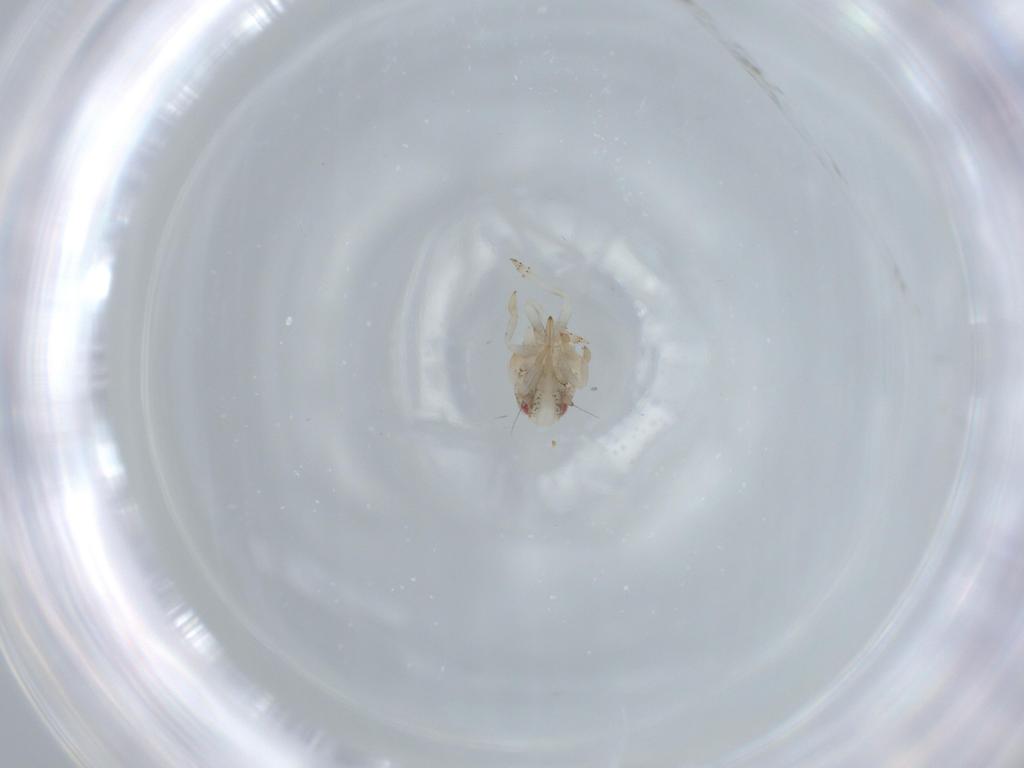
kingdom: Animalia
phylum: Arthropoda
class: Insecta
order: Hemiptera
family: Acanaloniidae
